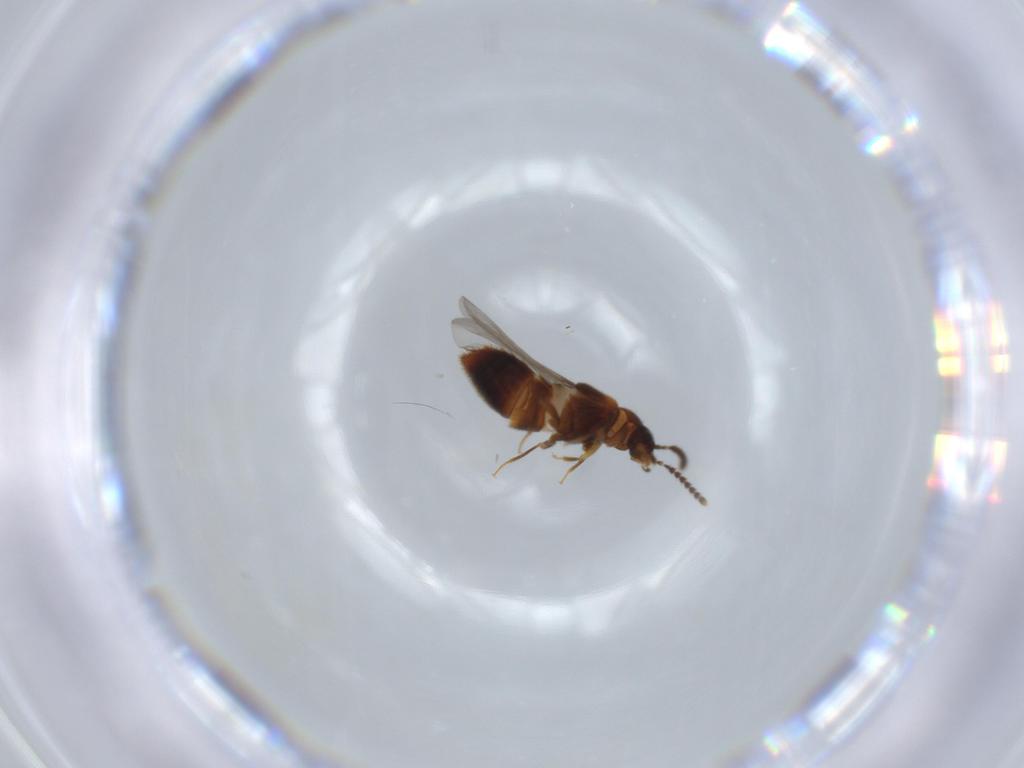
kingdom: Animalia
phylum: Arthropoda
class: Insecta
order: Coleoptera
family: Staphylinidae
